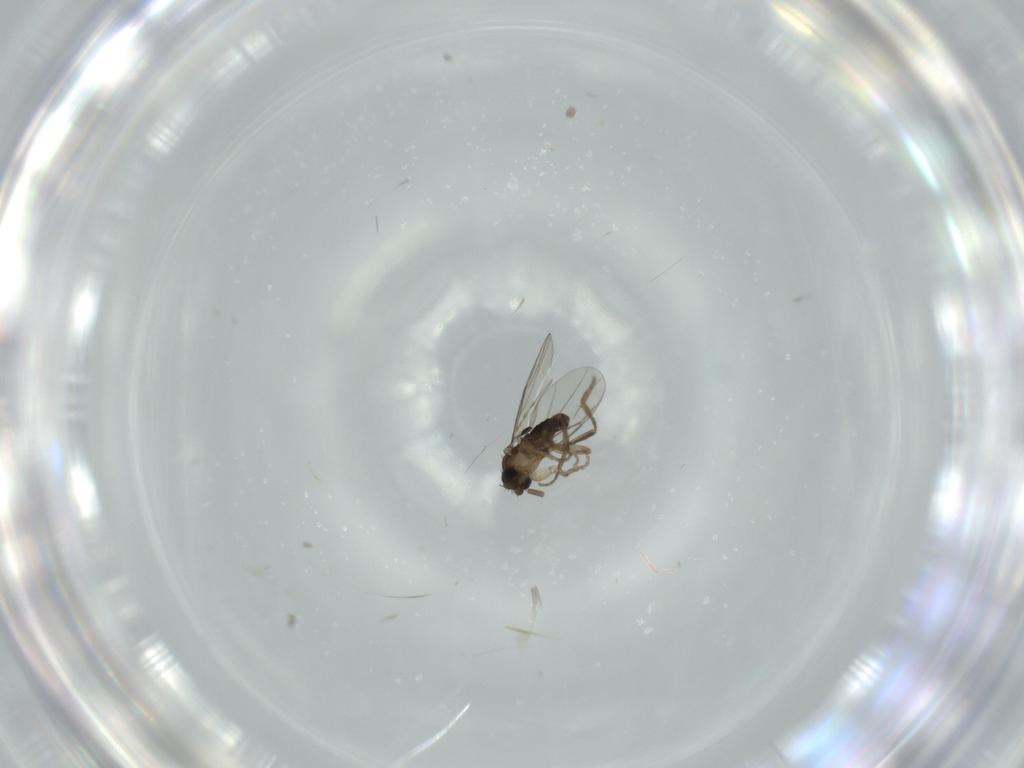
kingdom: Animalia
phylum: Arthropoda
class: Insecta
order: Diptera
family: Phoridae
